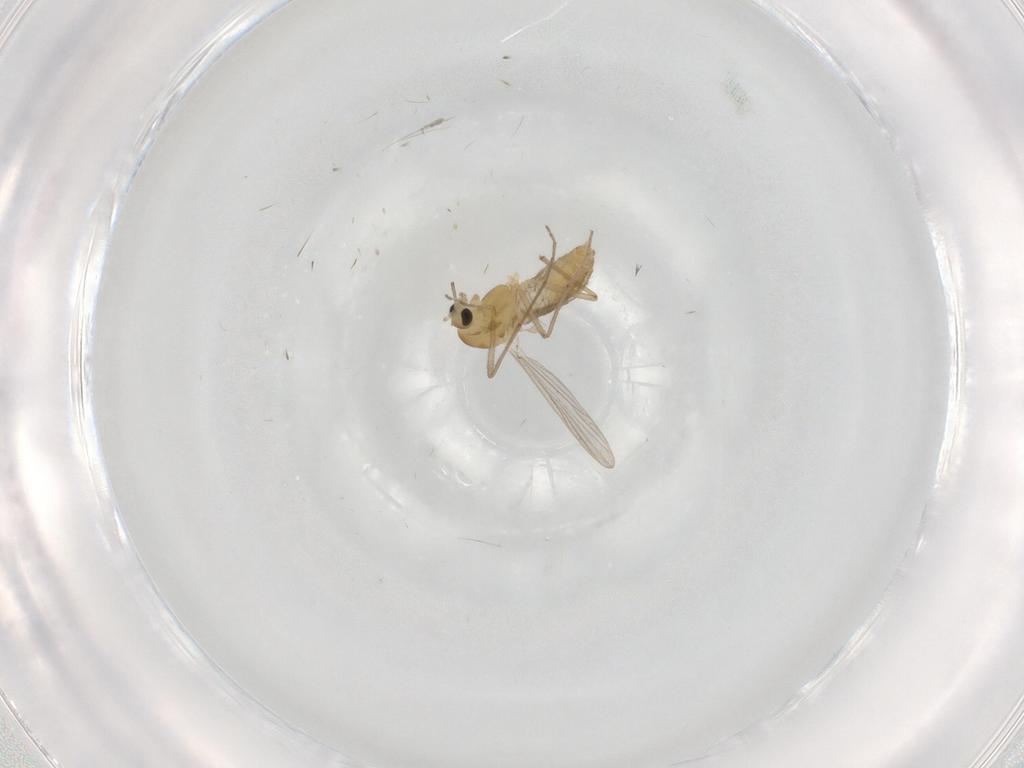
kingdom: Animalia
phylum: Arthropoda
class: Insecta
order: Diptera
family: Chironomidae
